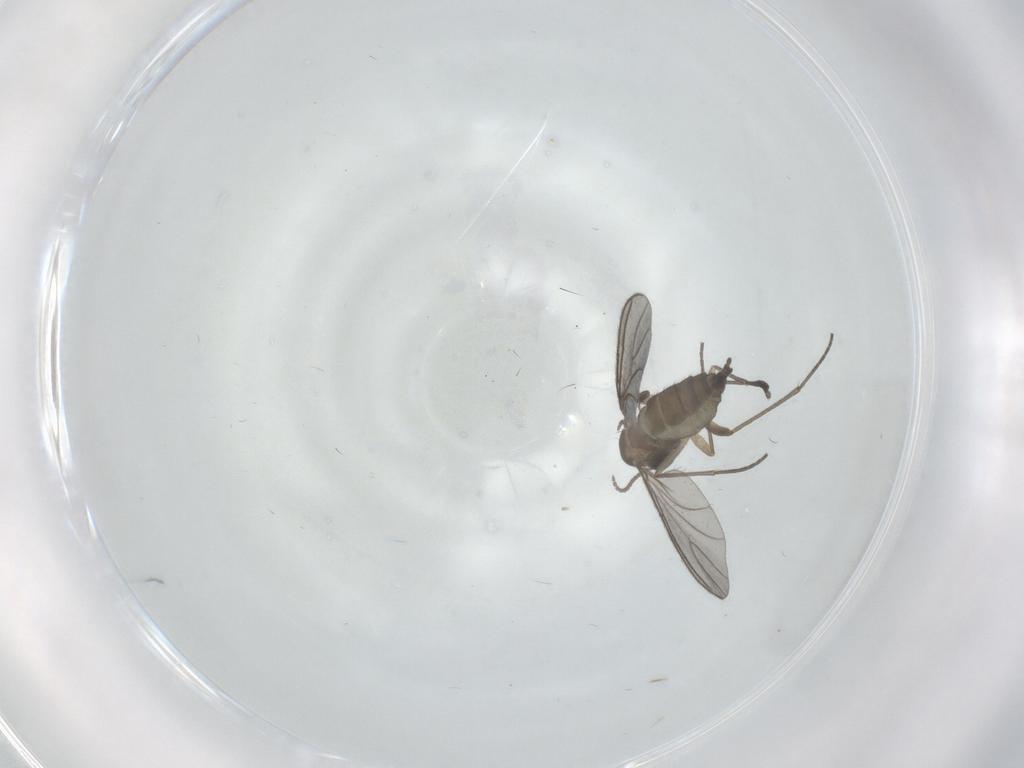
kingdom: Animalia
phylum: Arthropoda
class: Insecta
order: Diptera
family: Sciaridae
